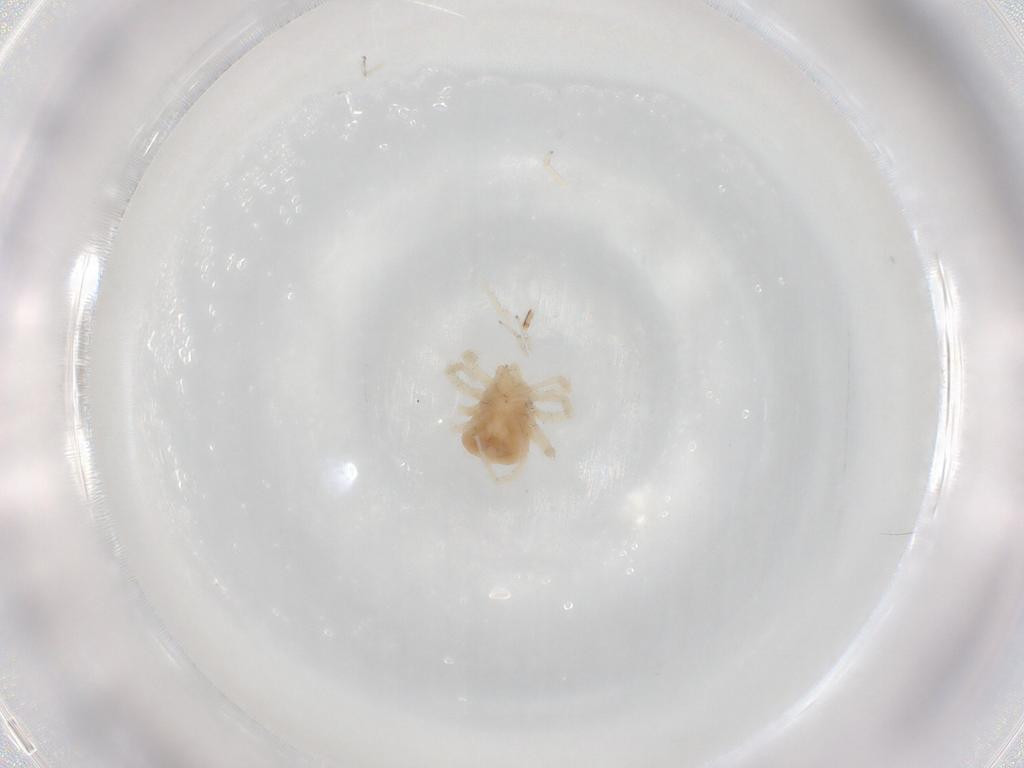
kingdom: Animalia
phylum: Arthropoda
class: Arachnida
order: Trombidiformes
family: Anystidae
